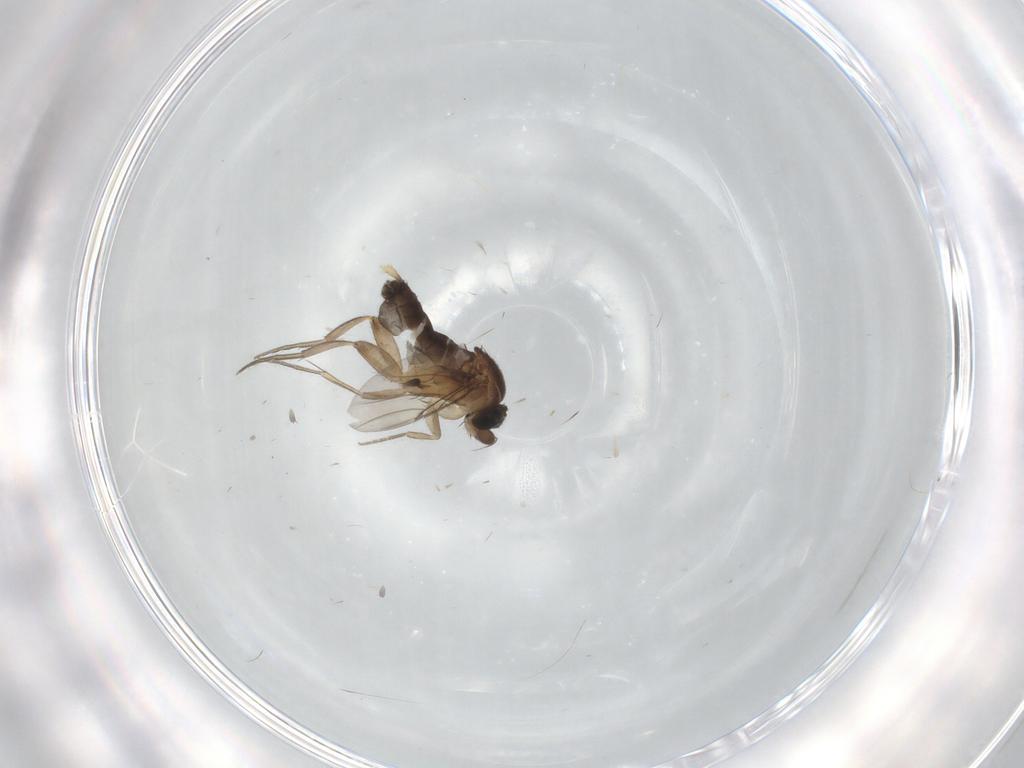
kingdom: Animalia
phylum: Arthropoda
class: Insecta
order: Diptera
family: Phoridae
